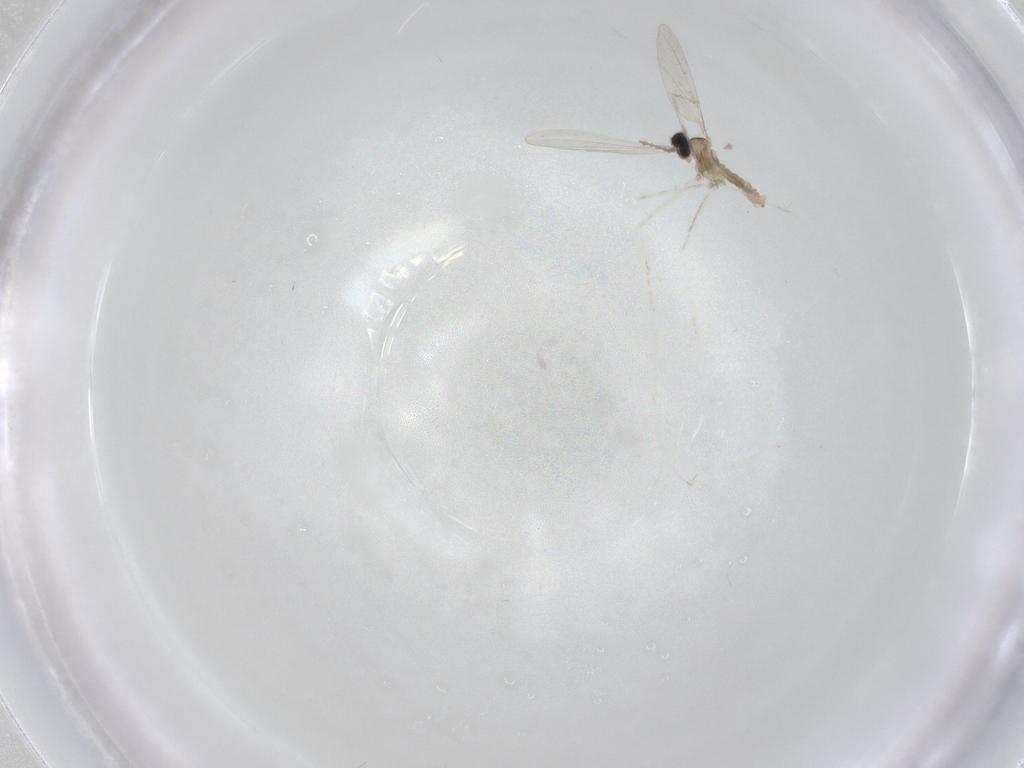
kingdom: Animalia
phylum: Arthropoda
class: Insecta
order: Diptera
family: Cecidomyiidae
